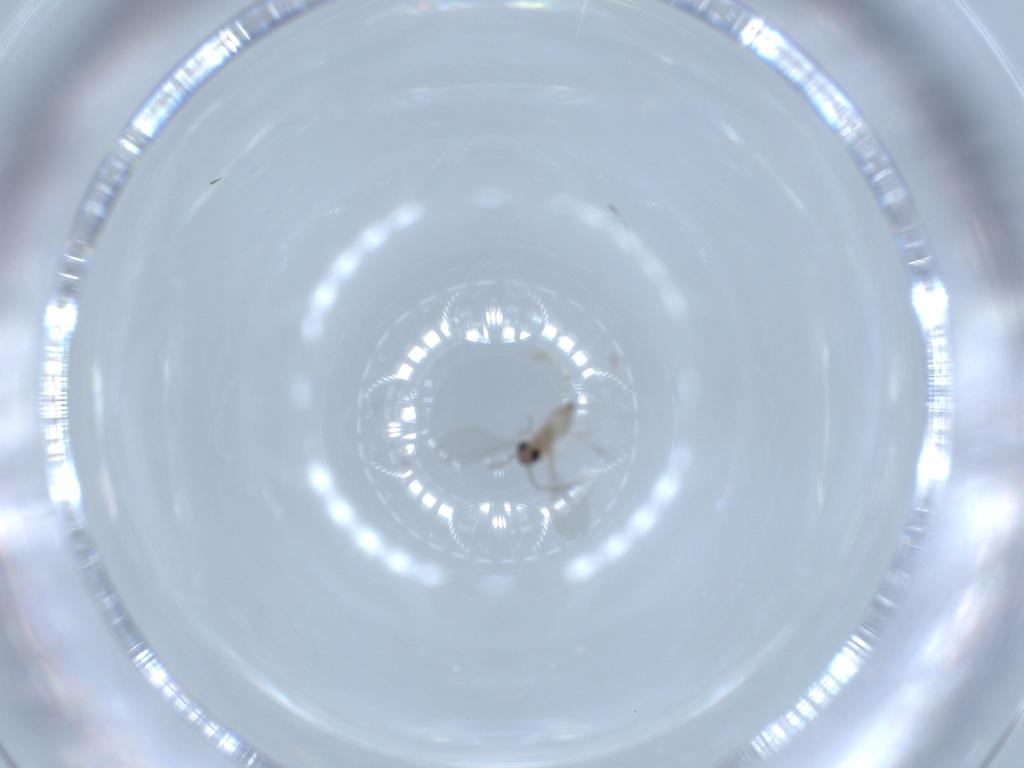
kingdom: Animalia
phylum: Arthropoda
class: Insecta
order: Diptera
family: Cecidomyiidae
